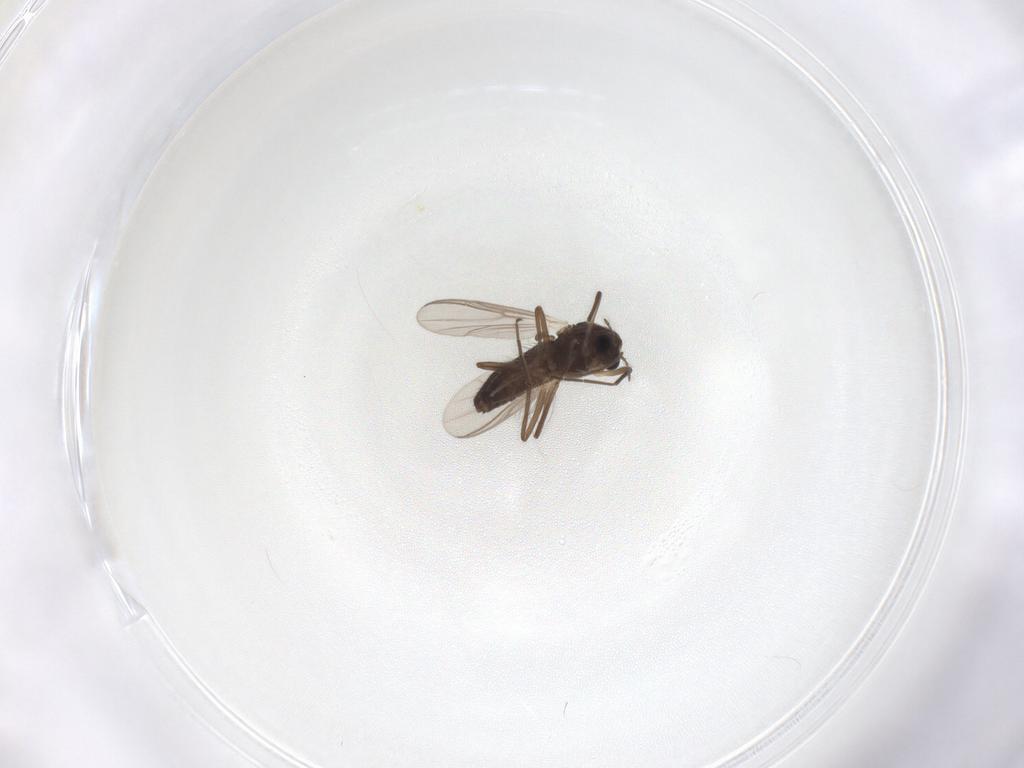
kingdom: Animalia
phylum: Arthropoda
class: Insecta
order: Diptera
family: Chironomidae
